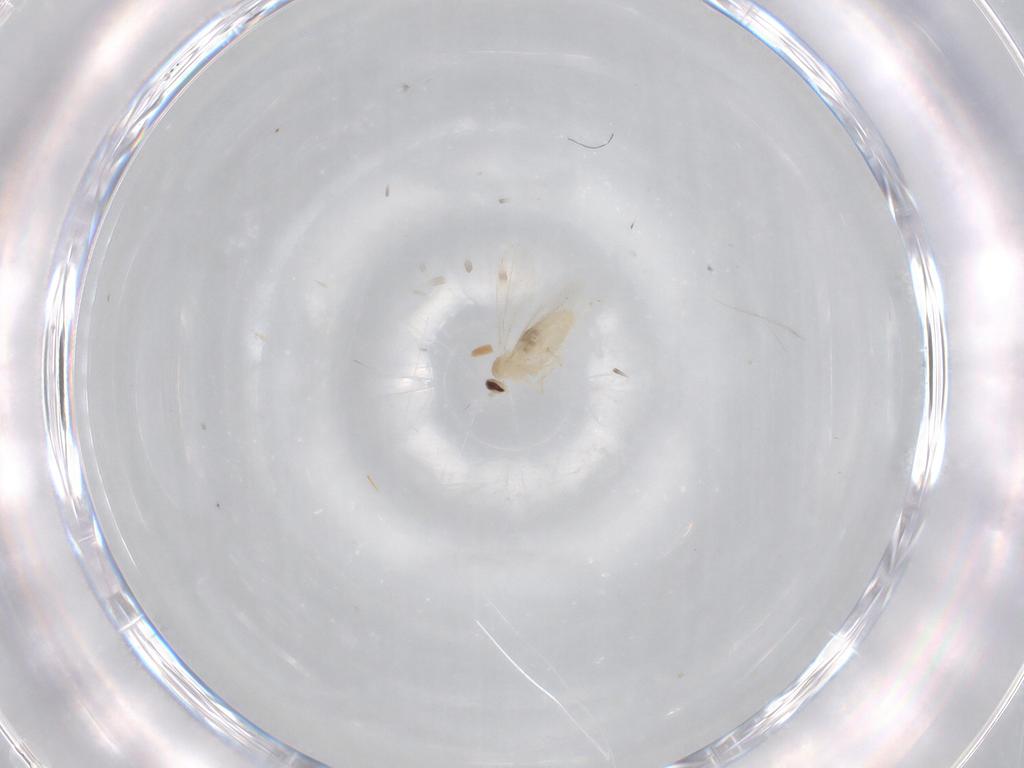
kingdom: Animalia
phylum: Arthropoda
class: Insecta
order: Diptera
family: Cecidomyiidae
